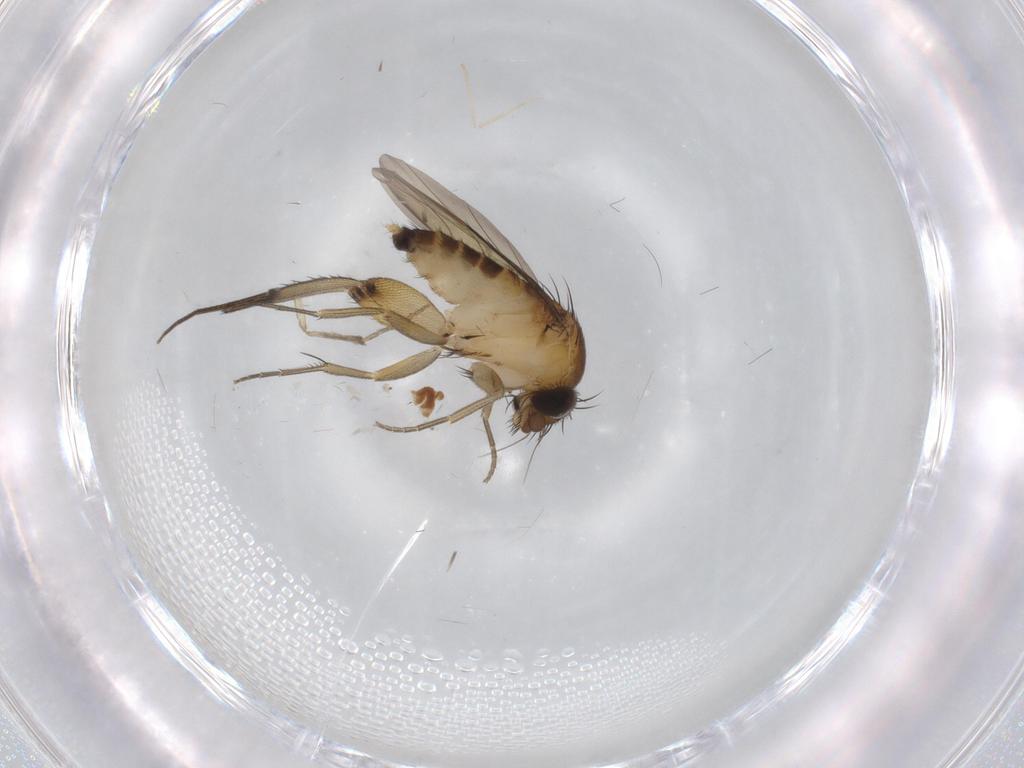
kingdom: Animalia
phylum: Arthropoda
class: Insecta
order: Diptera
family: Phoridae
